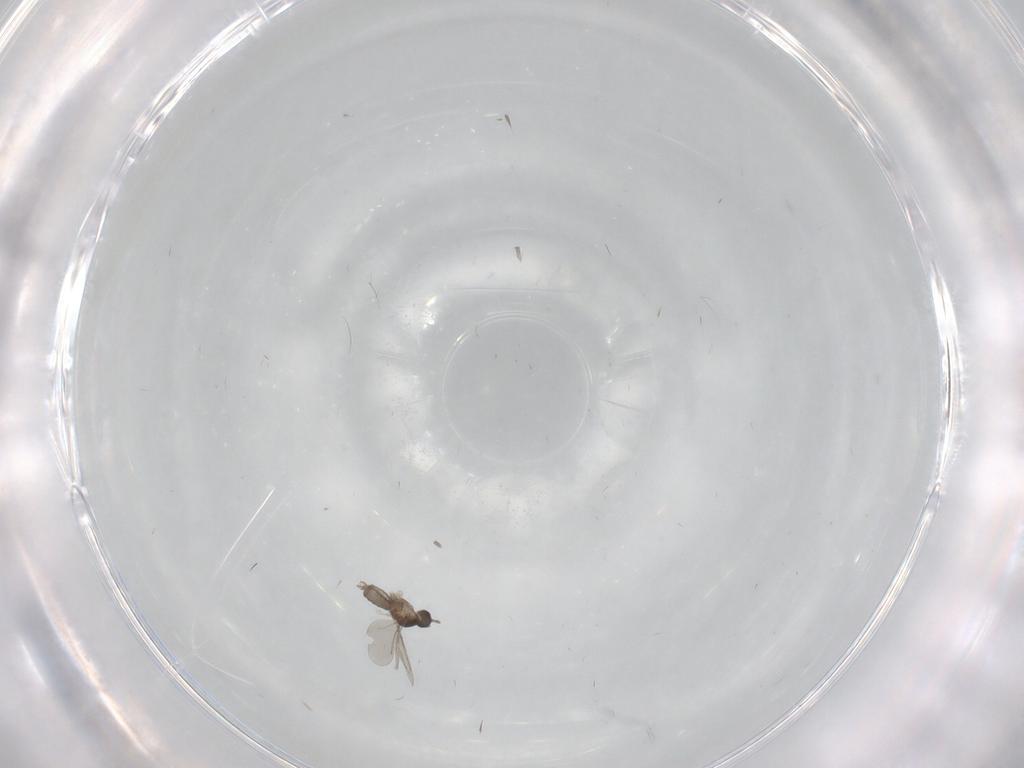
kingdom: Animalia
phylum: Arthropoda
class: Insecta
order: Diptera
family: Chironomidae
